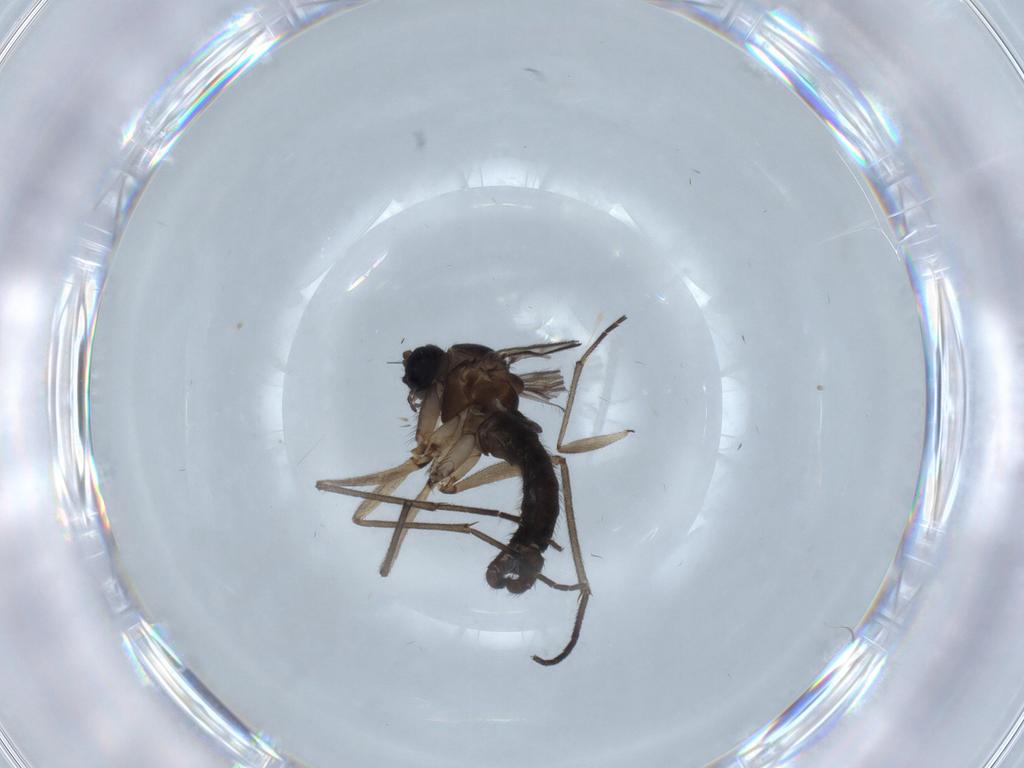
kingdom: Animalia
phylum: Arthropoda
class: Insecta
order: Diptera
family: Sciaridae
